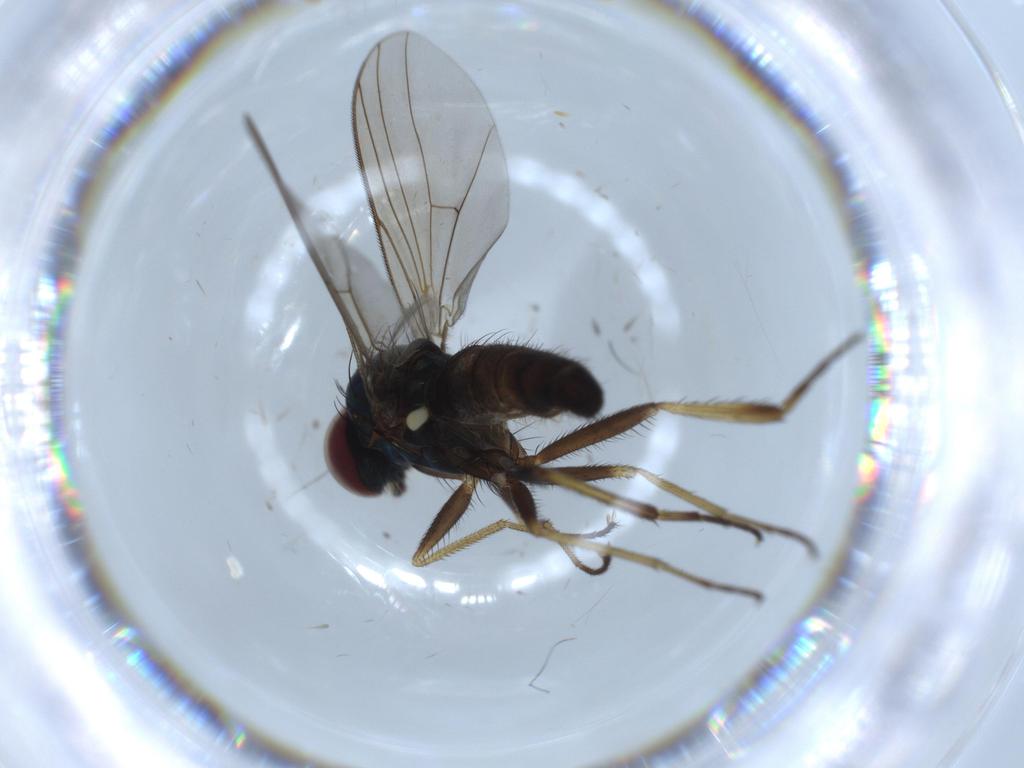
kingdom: Animalia
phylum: Arthropoda
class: Insecta
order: Diptera
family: Dolichopodidae
